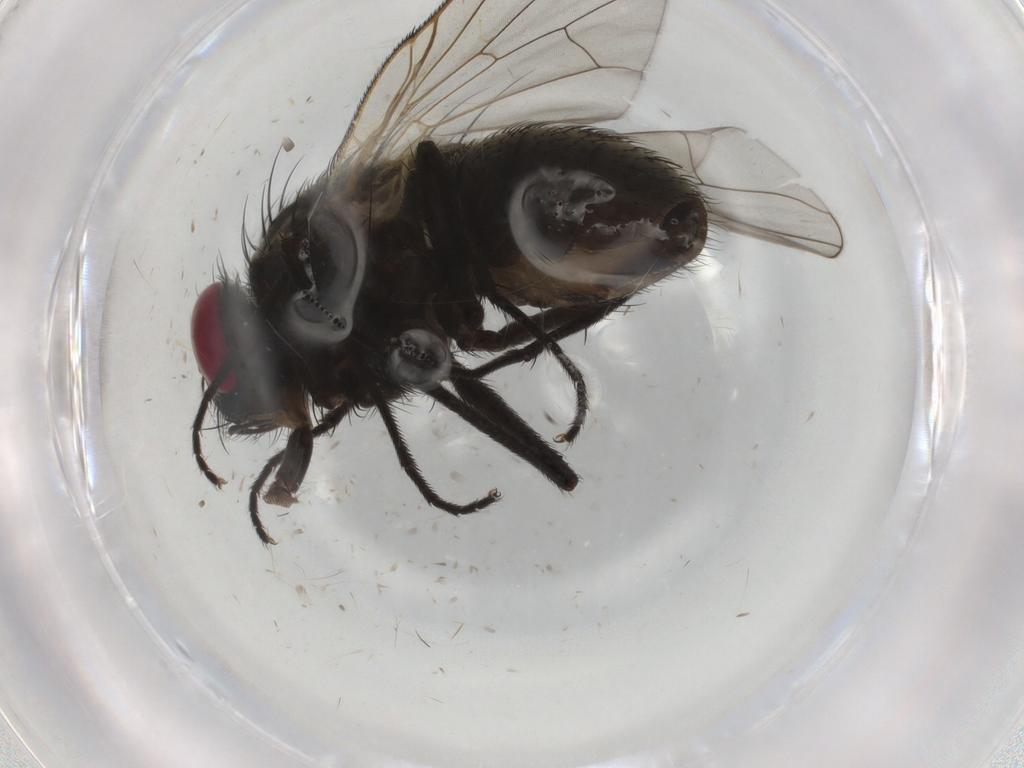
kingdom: Animalia
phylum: Arthropoda
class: Insecta
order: Diptera
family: Muscidae
